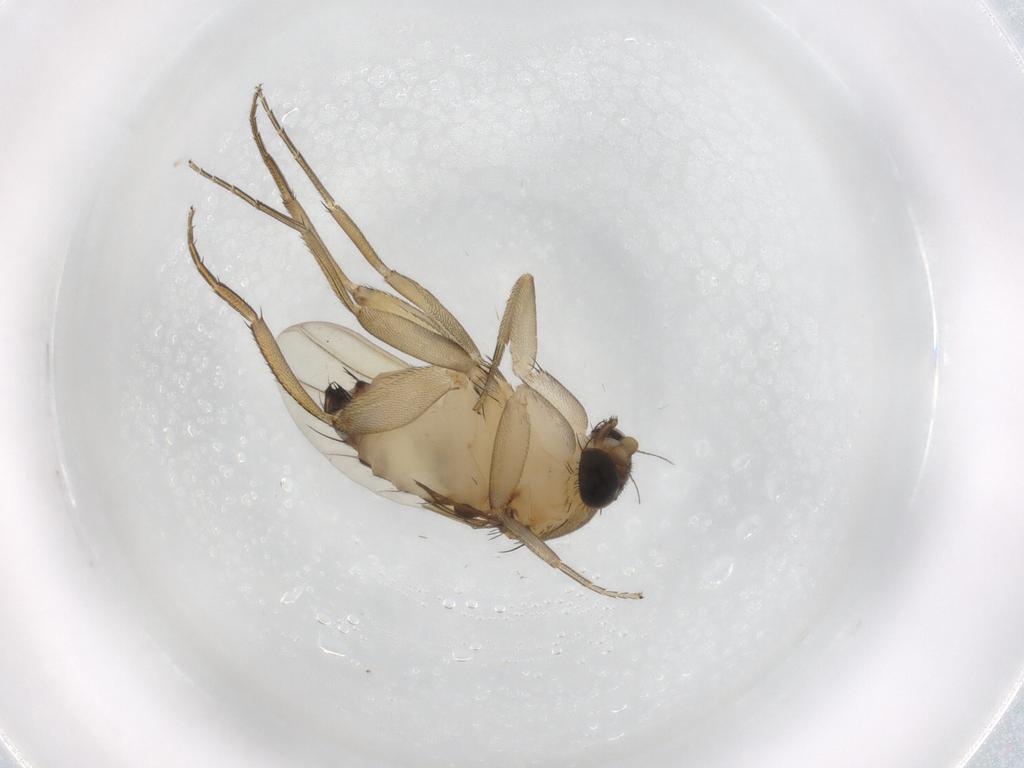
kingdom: Animalia
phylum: Arthropoda
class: Insecta
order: Diptera
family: Phoridae
